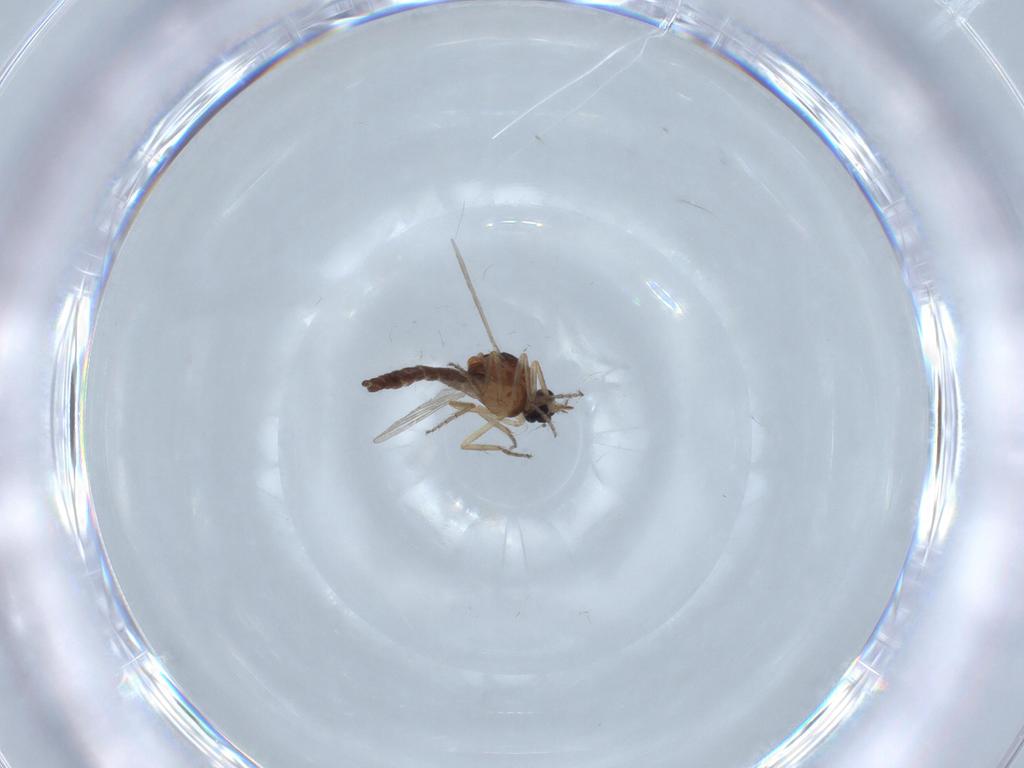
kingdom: Animalia
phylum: Arthropoda
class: Insecta
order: Diptera
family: Ceratopogonidae
